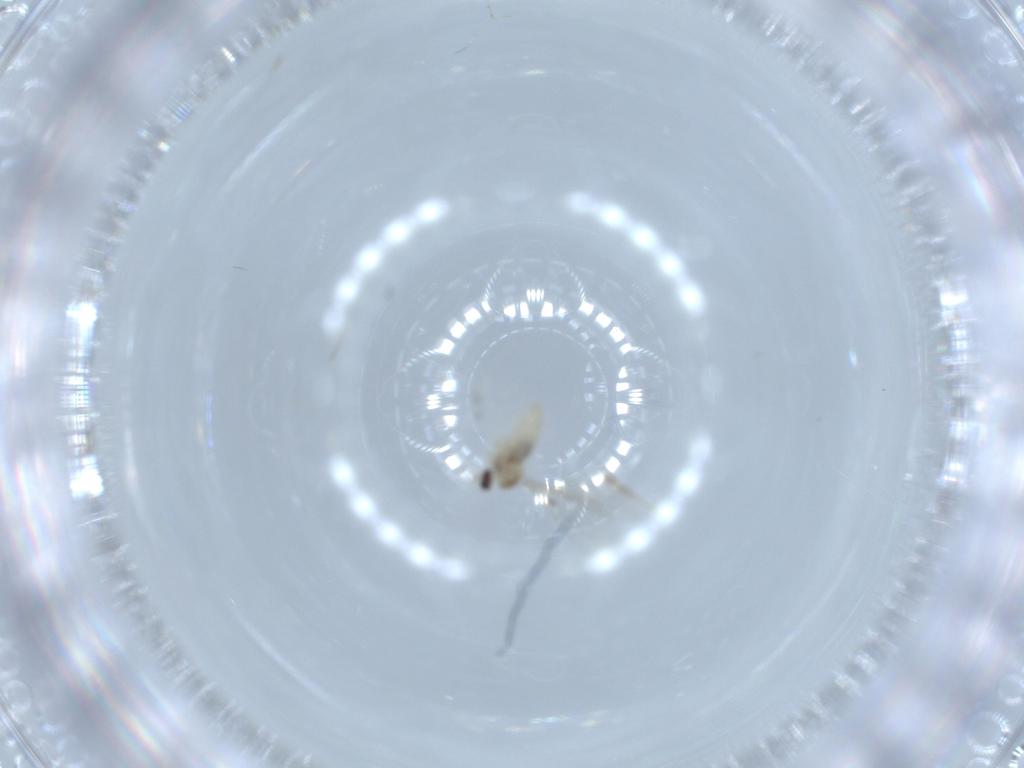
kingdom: Animalia
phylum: Arthropoda
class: Insecta
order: Diptera
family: Cecidomyiidae
